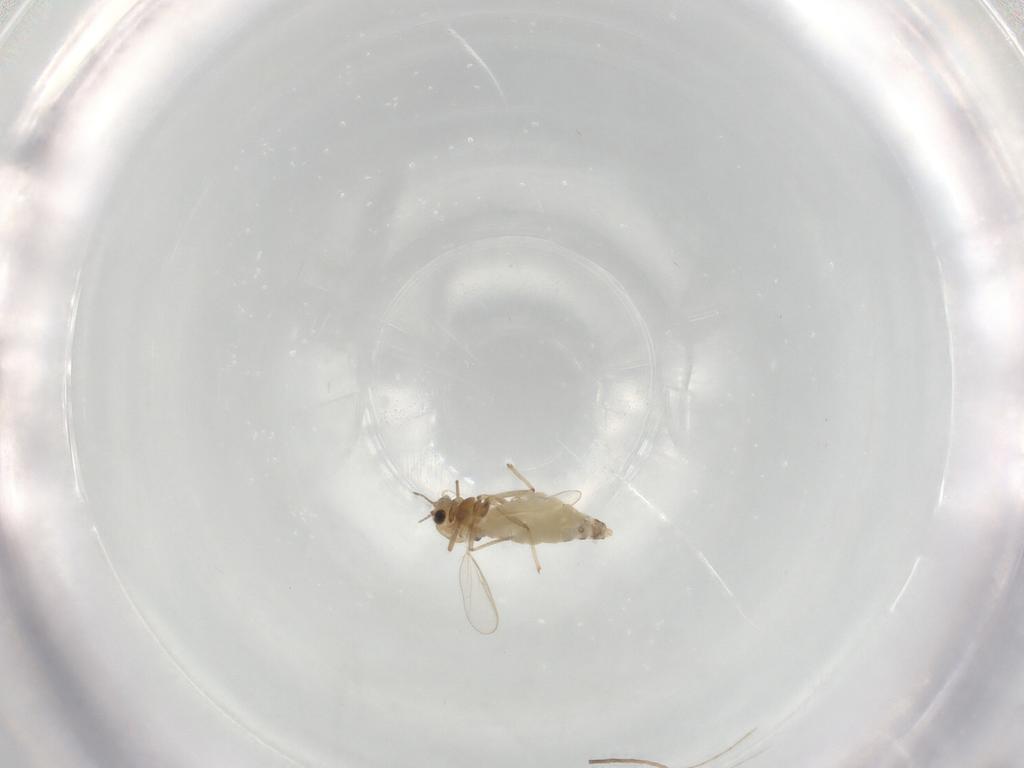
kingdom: Animalia
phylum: Arthropoda
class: Insecta
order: Diptera
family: Chironomidae
